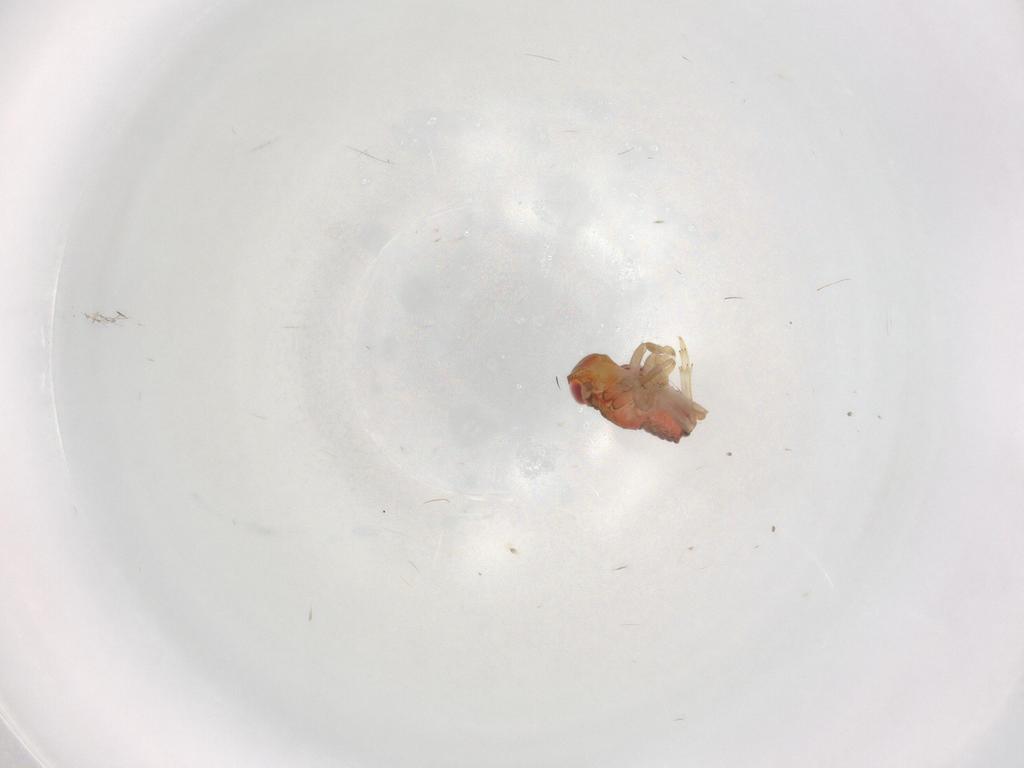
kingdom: Animalia
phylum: Arthropoda
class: Insecta
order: Hemiptera
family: Issidae
